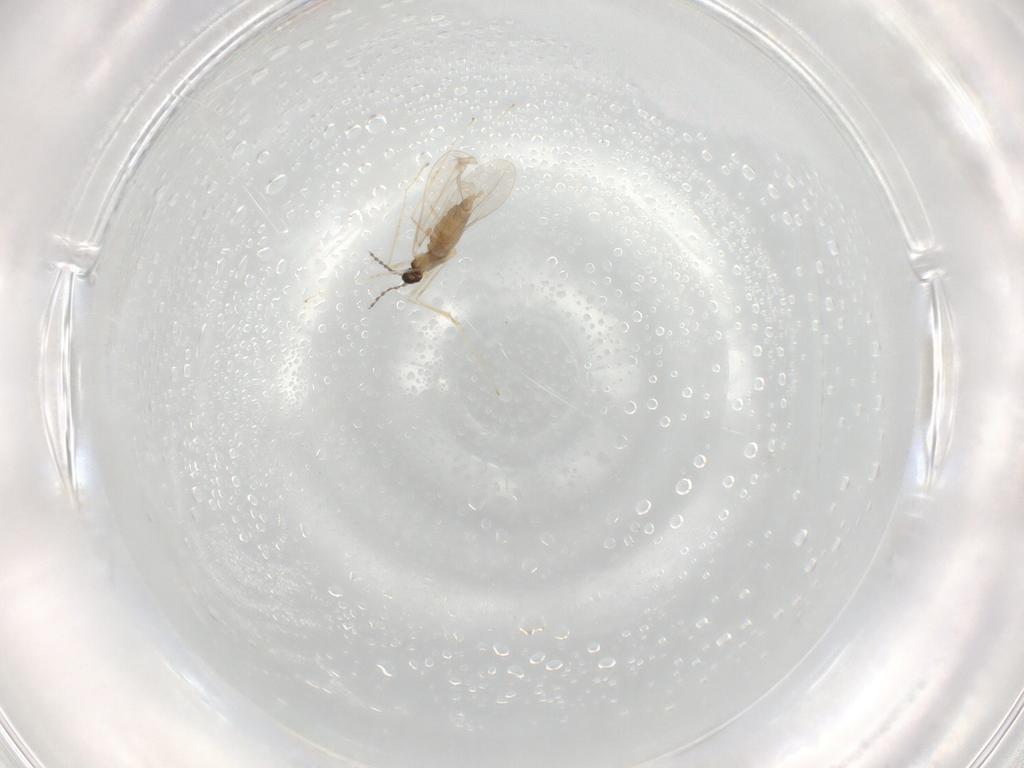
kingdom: Animalia
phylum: Arthropoda
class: Insecta
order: Diptera
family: Cecidomyiidae
